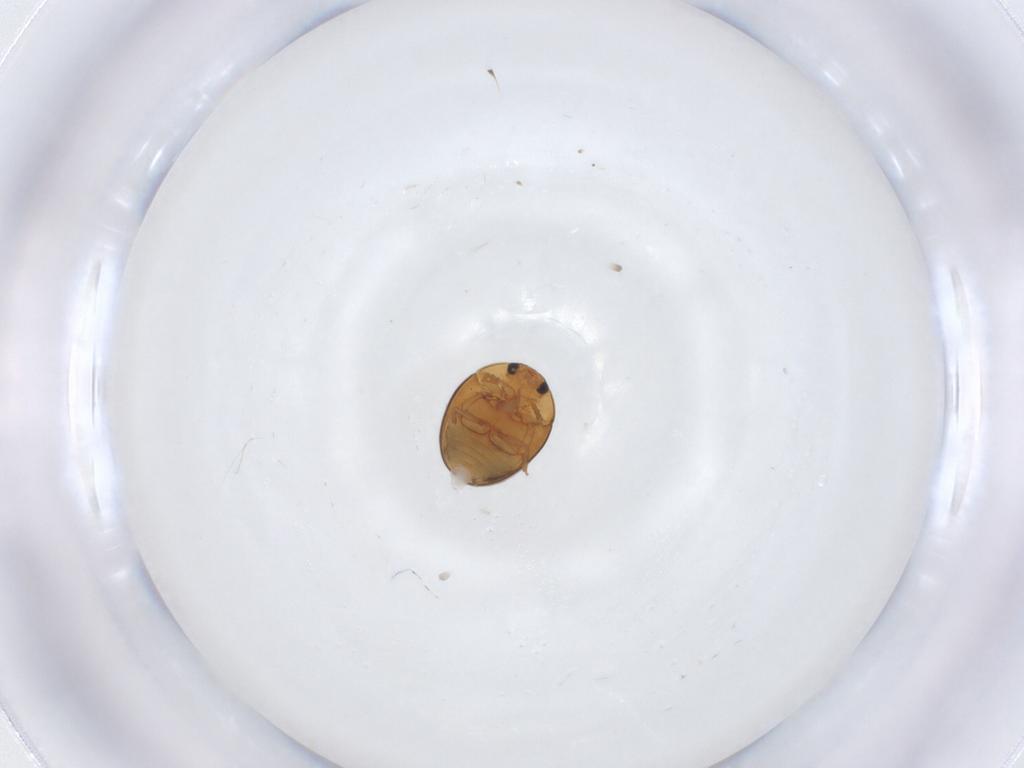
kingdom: Animalia
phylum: Arthropoda
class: Insecta
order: Coleoptera
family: Phalacridae
